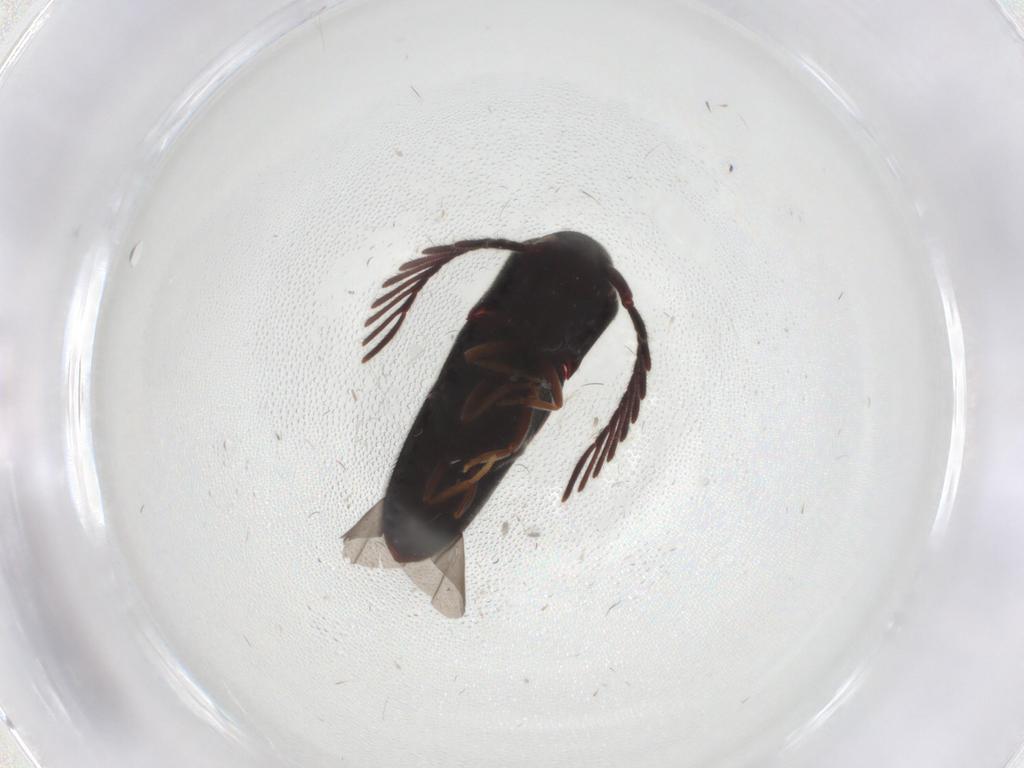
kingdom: Animalia
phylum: Arthropoda
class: Insecta
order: Coleoptera
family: Eucnemidae
